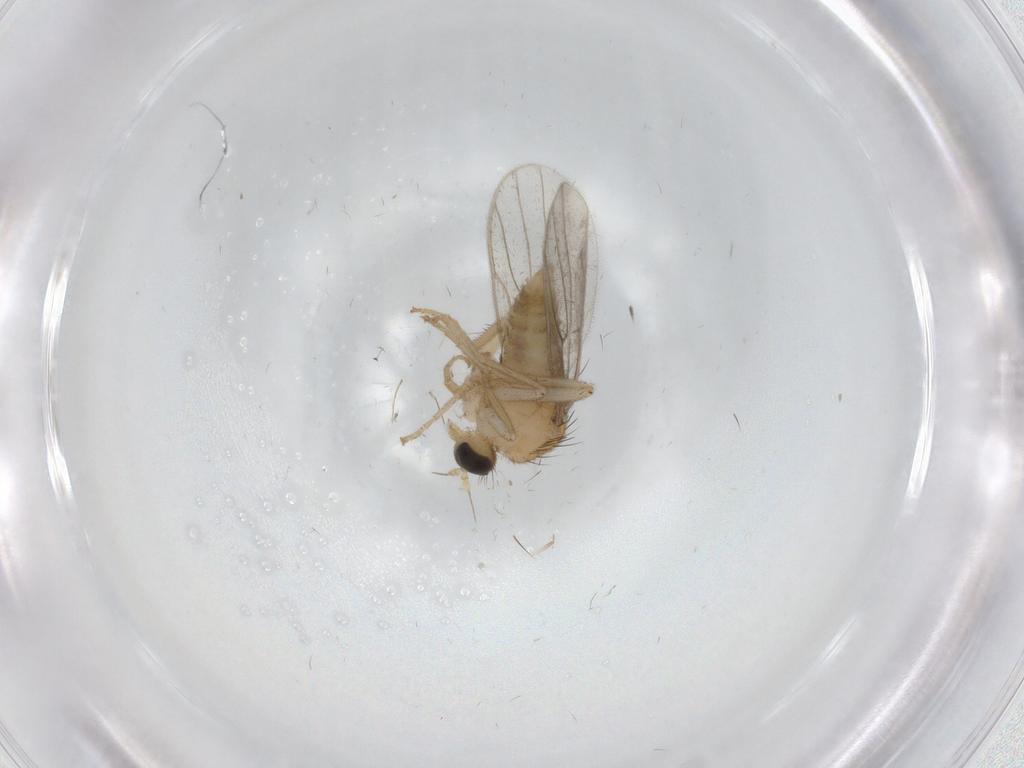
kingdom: Animalia
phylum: Arthropoda
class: Insecta
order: Diptera
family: Hybotidae
